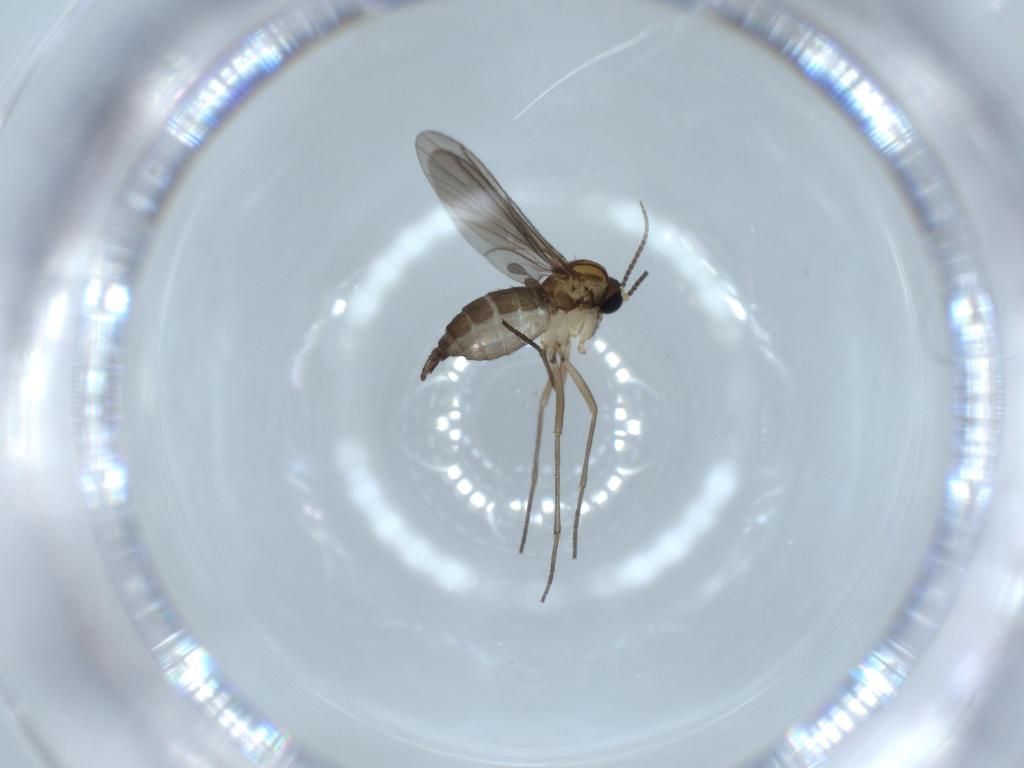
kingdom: Animalia
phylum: Arthropoda
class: Insecta
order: Diptera
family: Sciaridae
